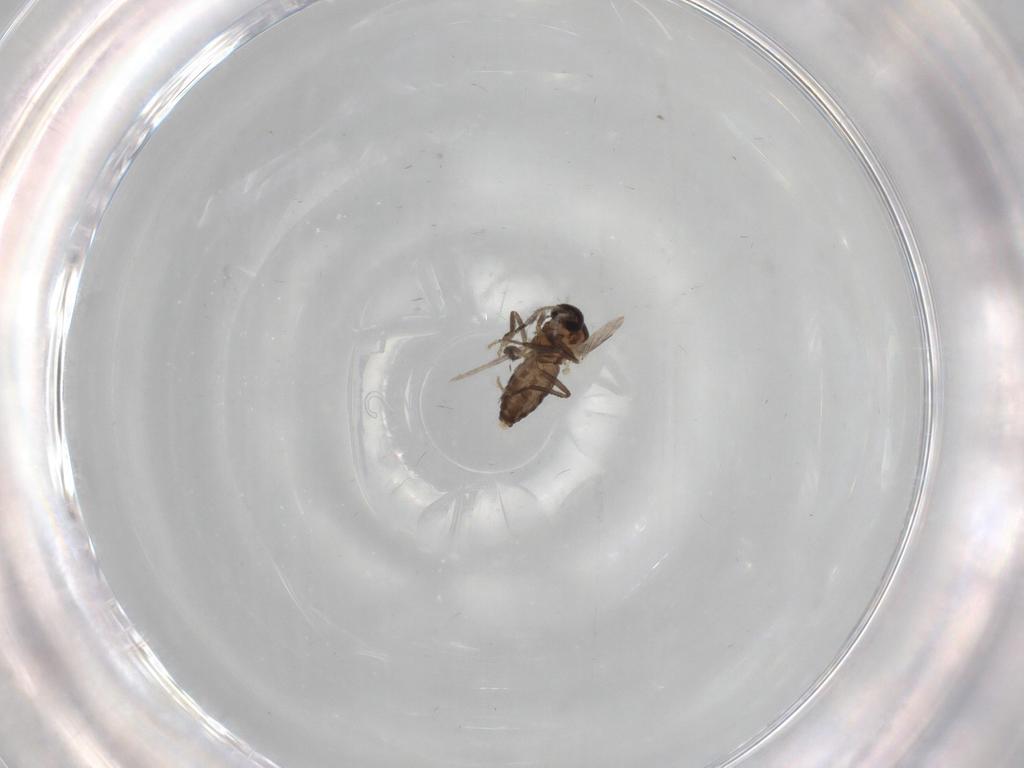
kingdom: Animalia
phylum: Arthropoda
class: Insecta
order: Diptera
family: Ceratopogonidae
